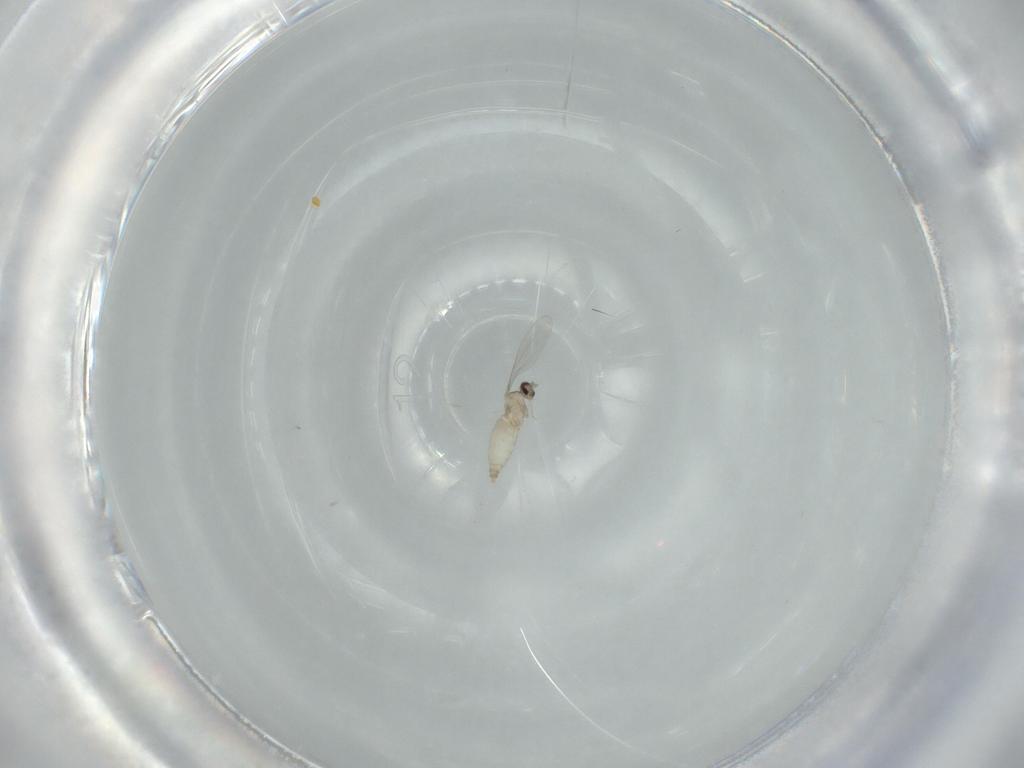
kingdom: Animalia
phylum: Arthropoda
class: Insecta
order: Diptera
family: Cecidomyiidae
